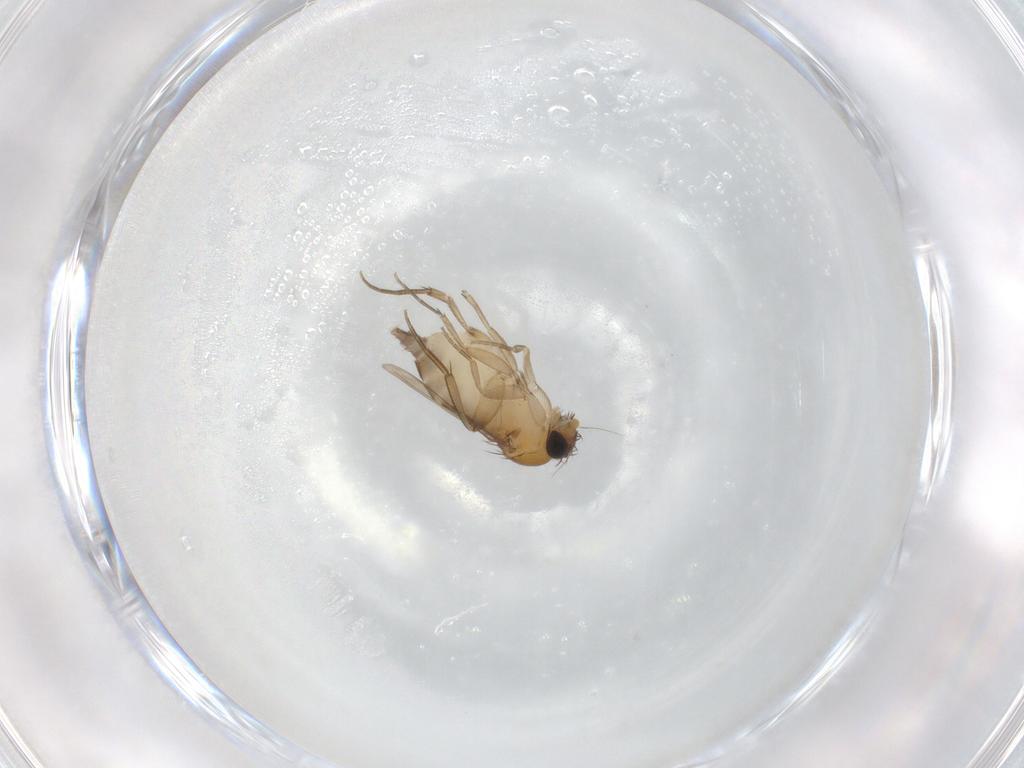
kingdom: Animalia
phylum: Arthropoda
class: Insecta
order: Diptera
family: Phoridae
